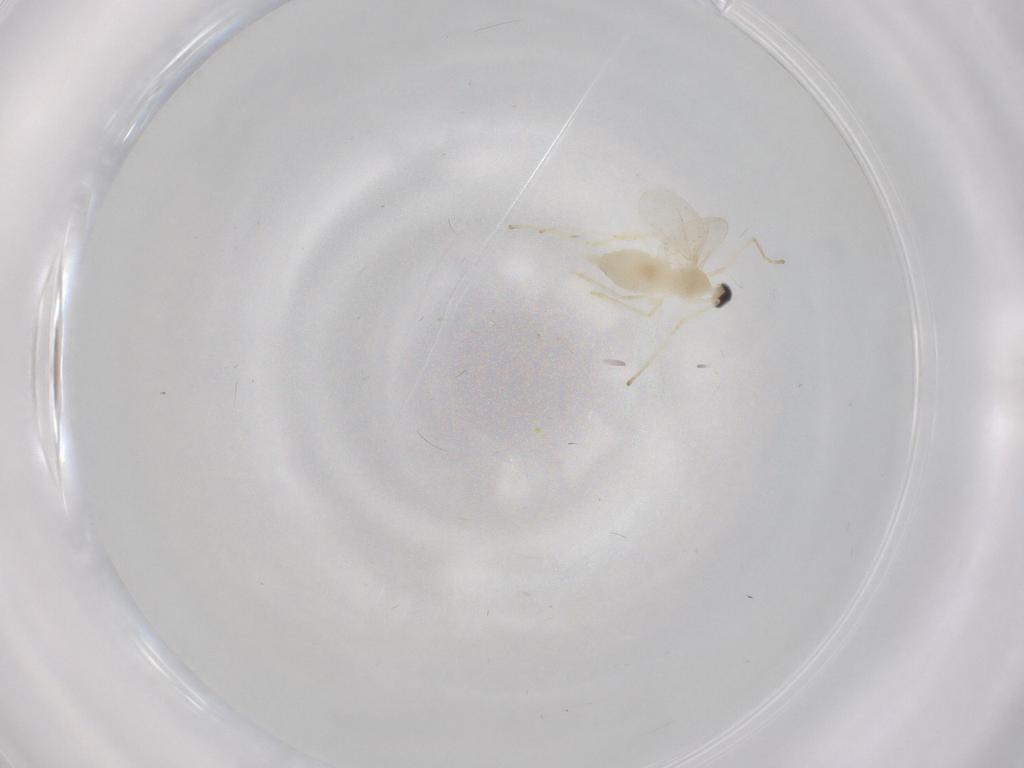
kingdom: Animalia
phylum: Arthropoda
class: Insecta
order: Diptera
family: Cecidomyiidae
